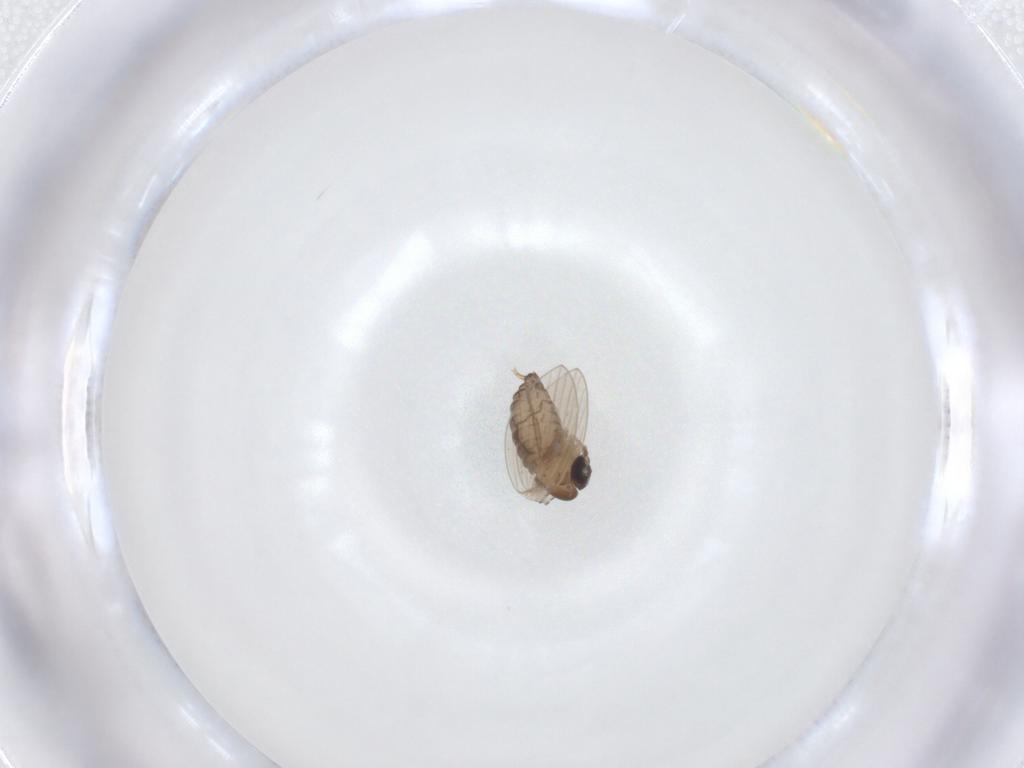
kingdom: Animalia
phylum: Arthropoda
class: Insecta
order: Diptera
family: Psychodidae
